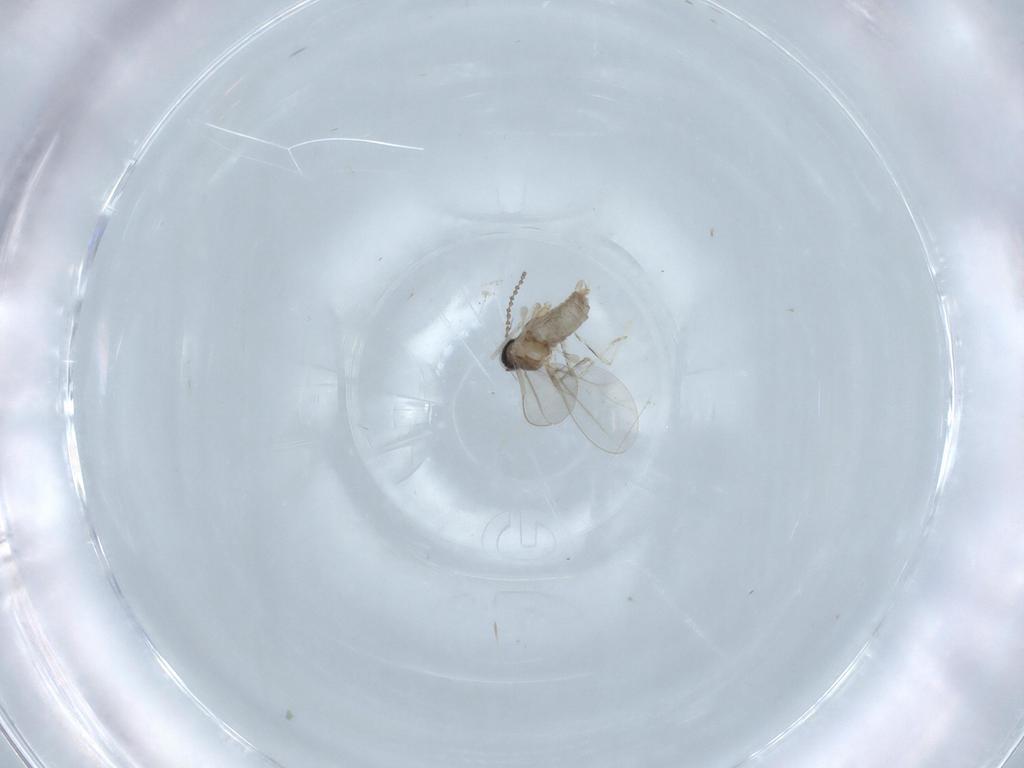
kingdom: Animalia
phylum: Arthropoda
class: Insecta
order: Diptera
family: Cecidomyiidae
